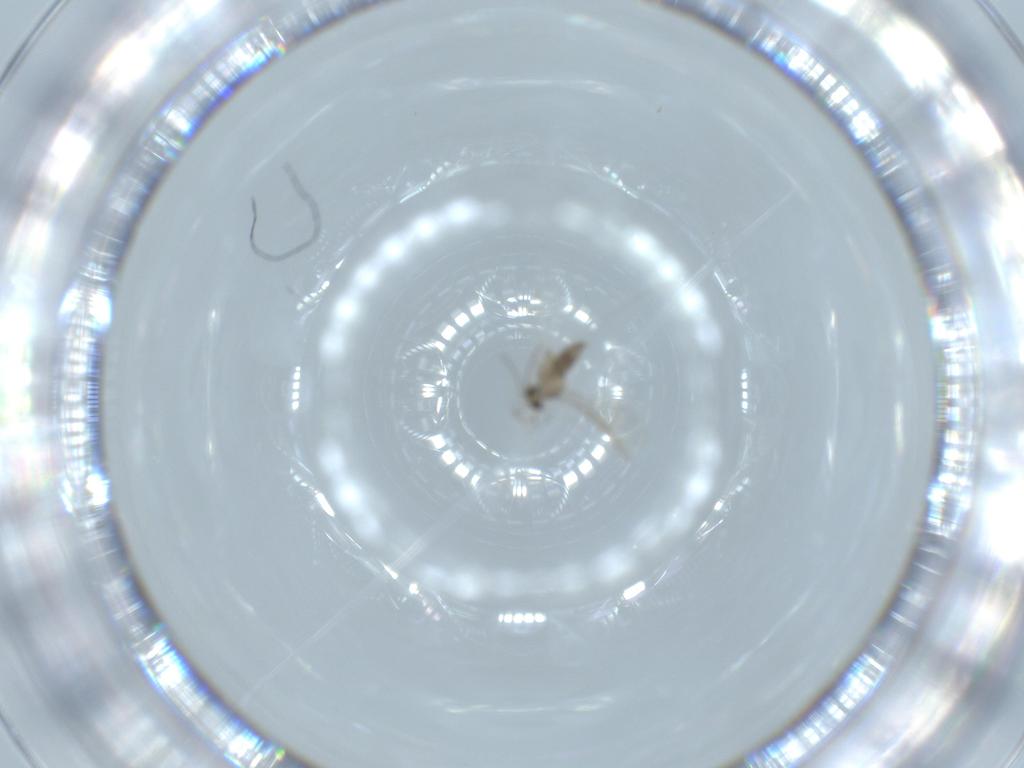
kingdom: Animalia
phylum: Arthropoda
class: Insecta
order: Diptera
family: Cecidomyiidae
